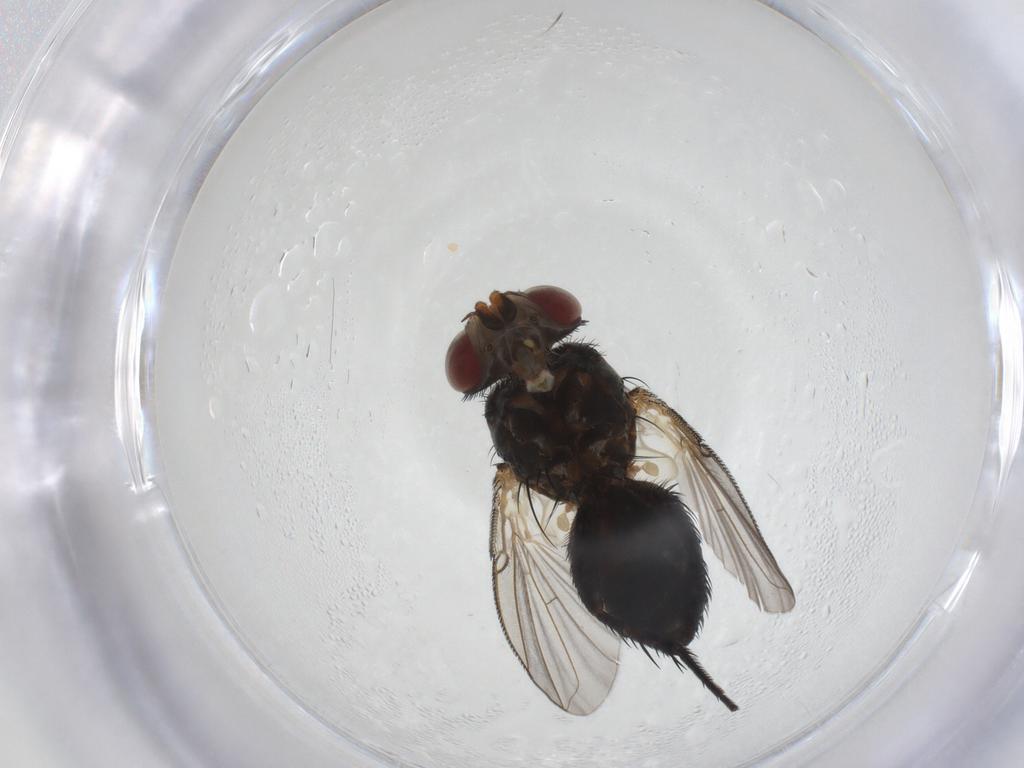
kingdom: Animalia
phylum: Arthropoda
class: Insecta
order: Diptera
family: Tachinidae
